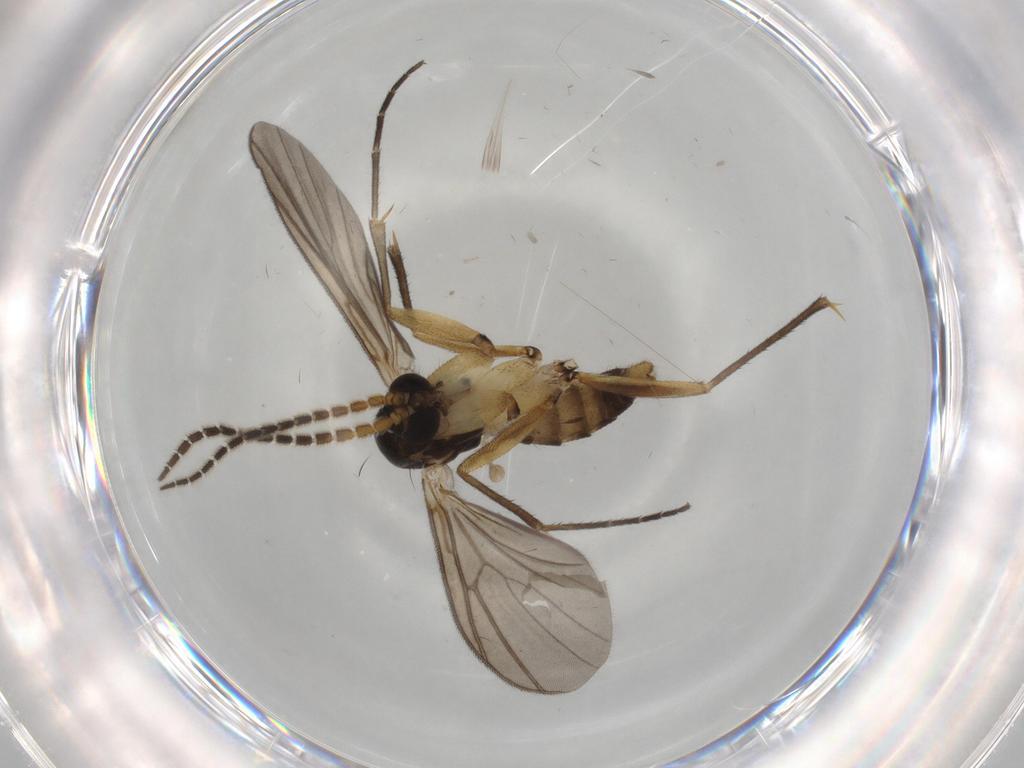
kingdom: Animalia
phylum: Arthropoda
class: Insecta
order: Diptera
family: Limoniidae
